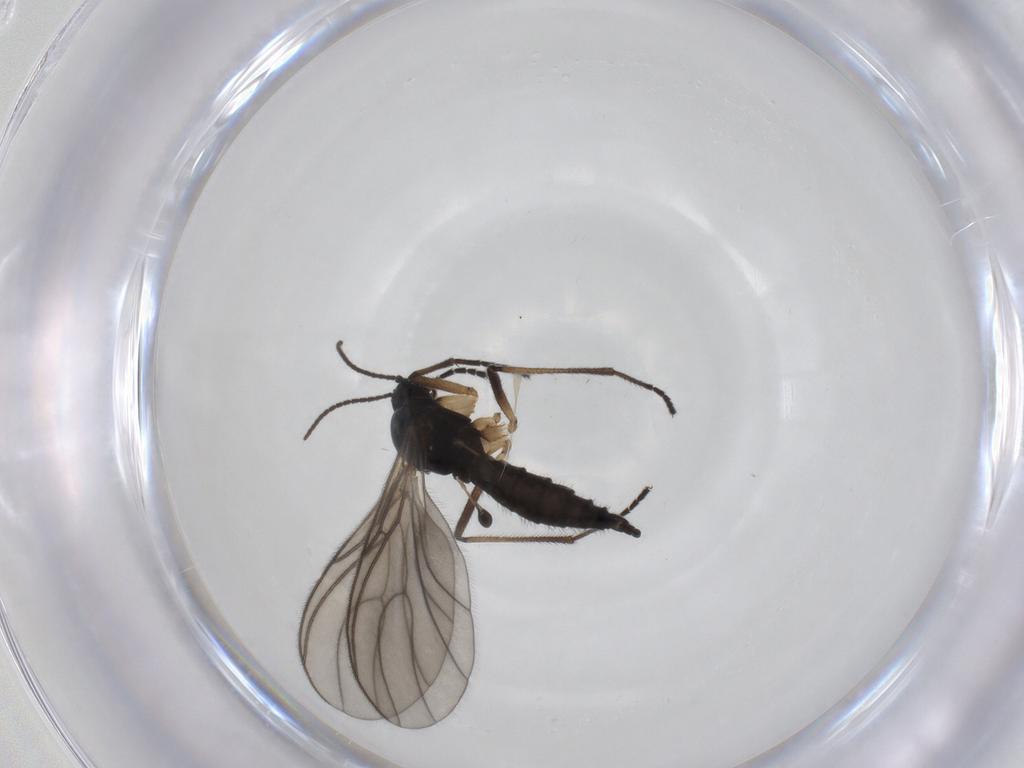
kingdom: Animalia
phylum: Arthropoda
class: Insecta
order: Diptera
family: Sciaridae
